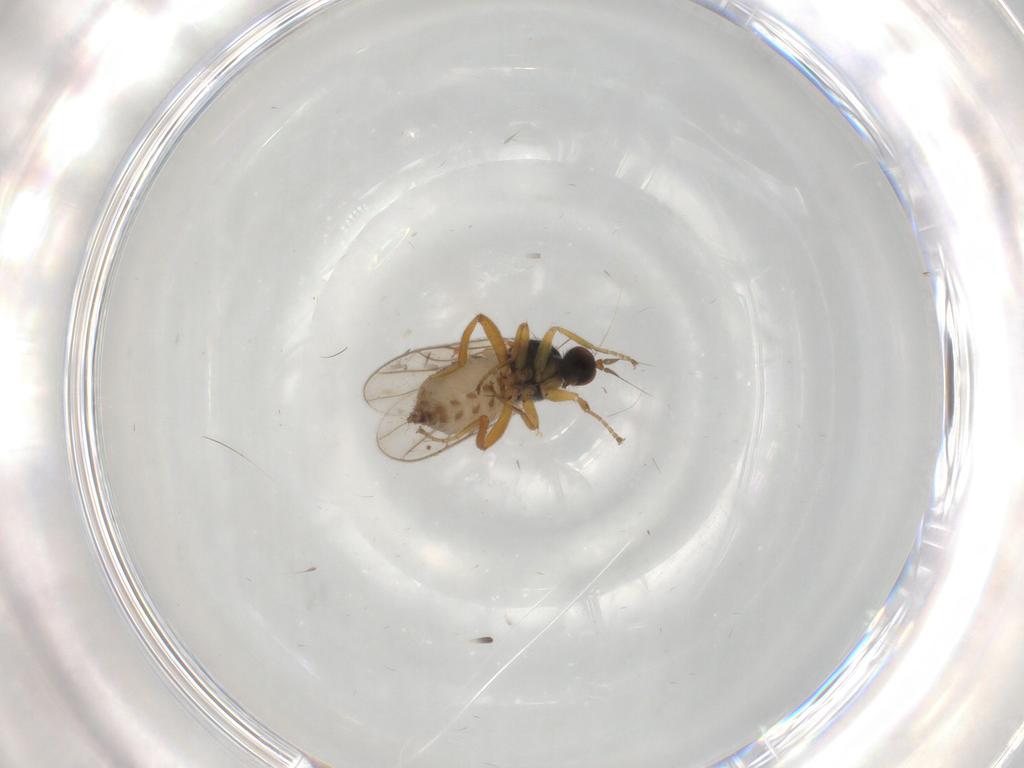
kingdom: Animalia
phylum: Arthropoda
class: Insecta
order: Diptera
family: Hybotidae
